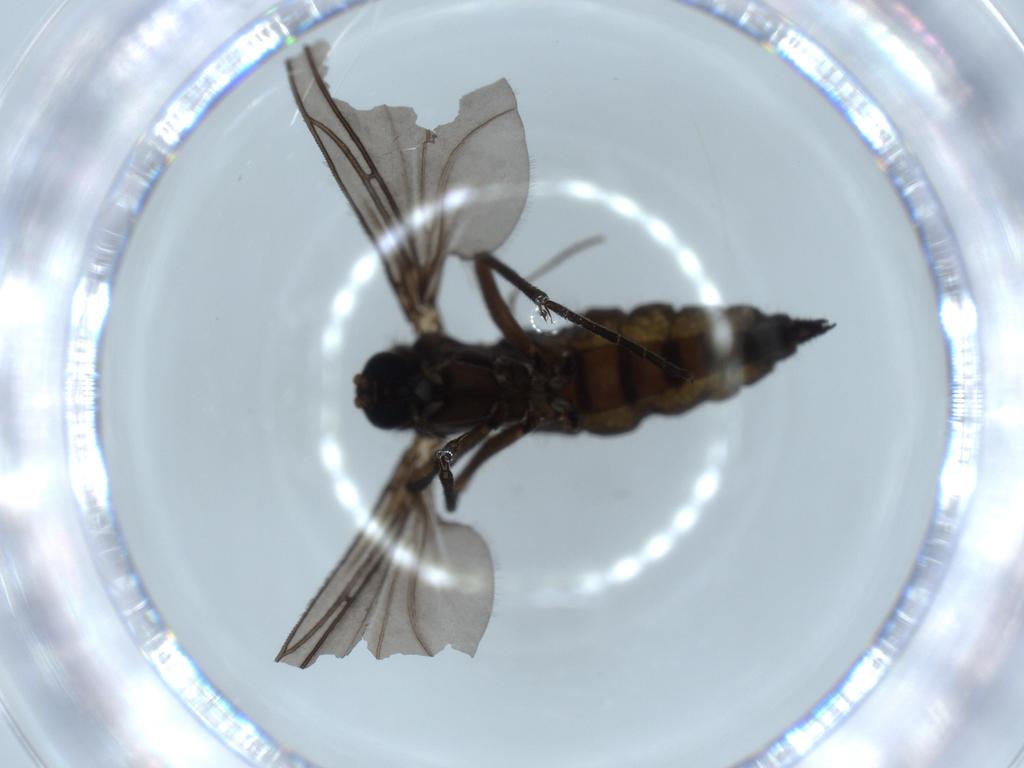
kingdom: Animalia
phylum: Arthropoda
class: Insecta
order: Diptera
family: Sciaridae
